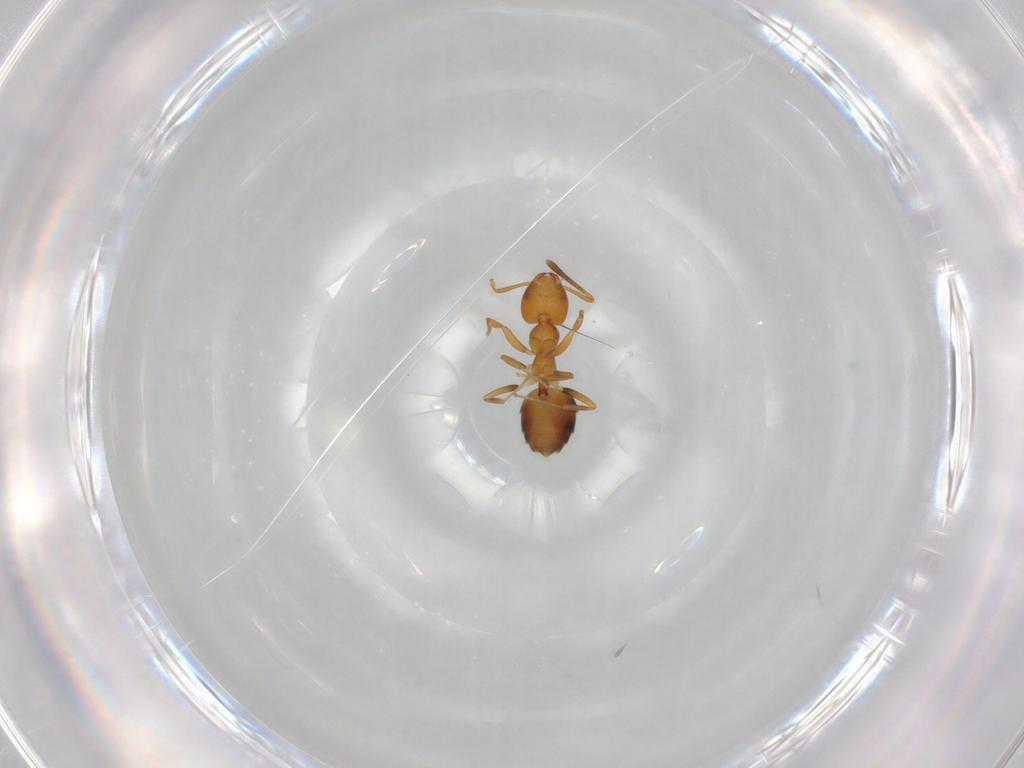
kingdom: Animalia
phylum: Arthropoda
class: Insecta
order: Hymenoptera
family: Formicidae
